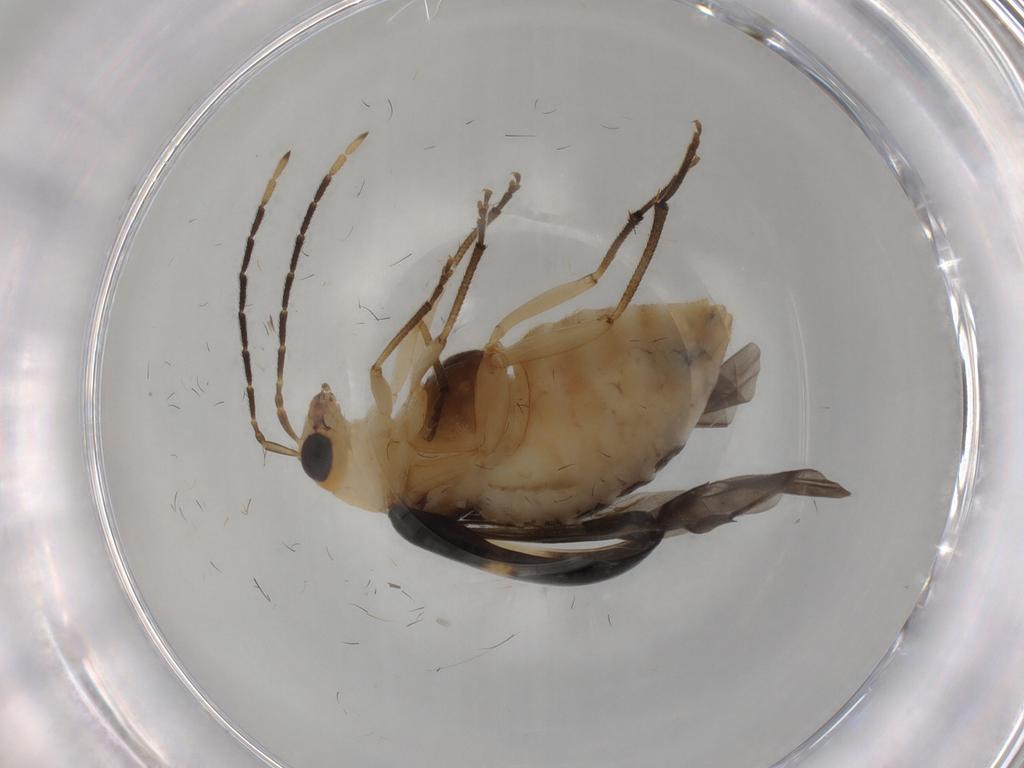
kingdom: Animalia
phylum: Arthropoda
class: Insecta
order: Coleoptera
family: Chrysomelidae
